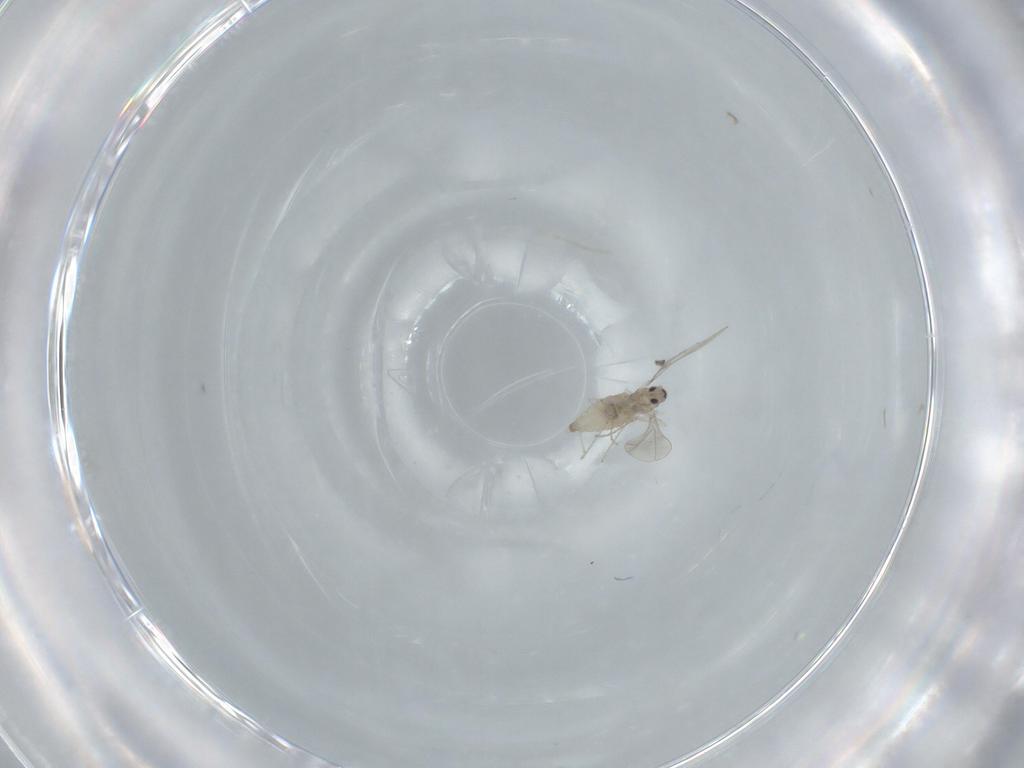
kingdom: Animalia
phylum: Arthropoda
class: Insecta
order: Diptera
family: Cecidomyiidae
